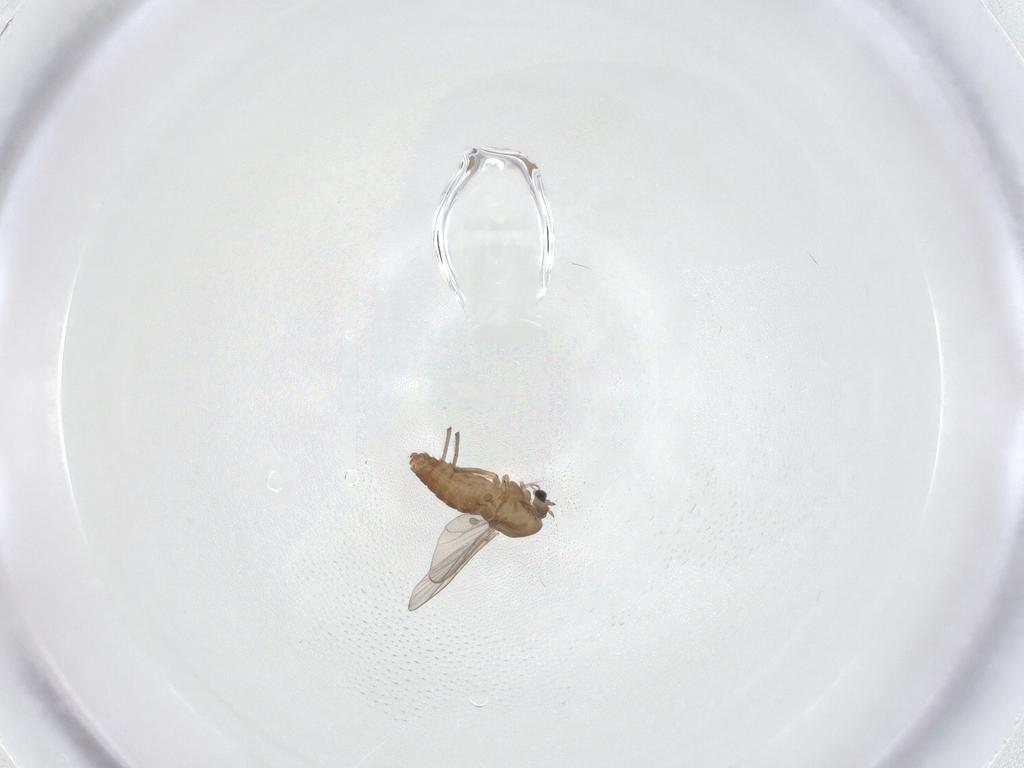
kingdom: Animalia
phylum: Arthropoda
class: Insecta
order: Diptera
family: Chironomidae
